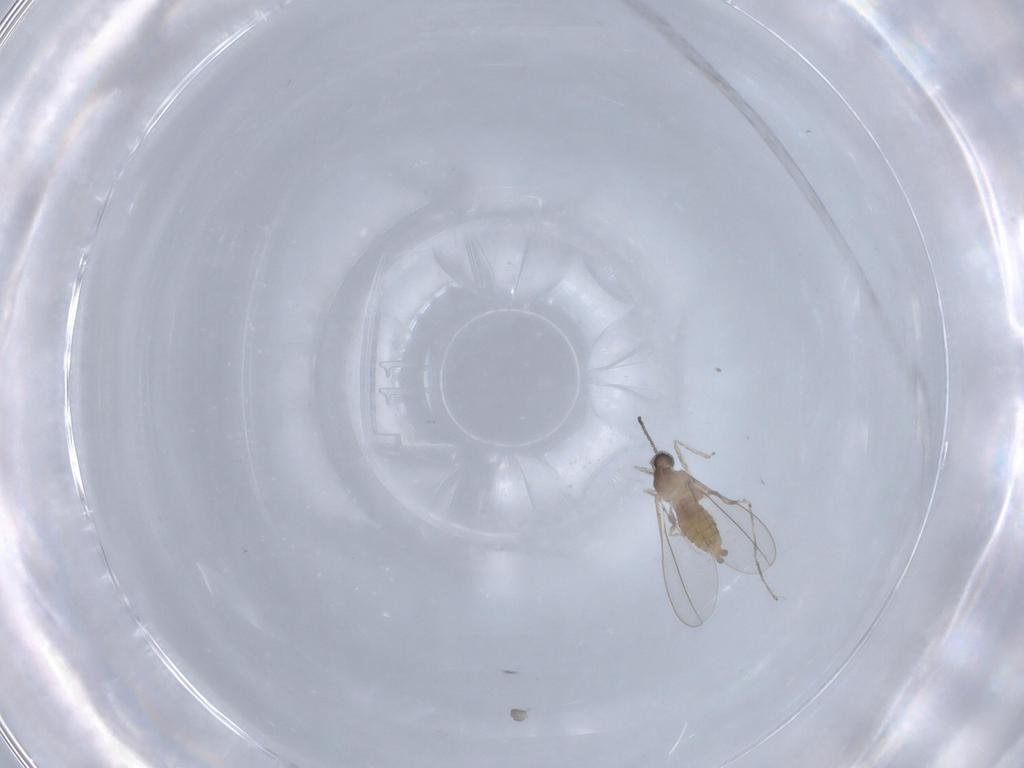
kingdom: Animalia
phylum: Arthropoda
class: Insecta
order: Diptera
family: Cecidomyiidae
